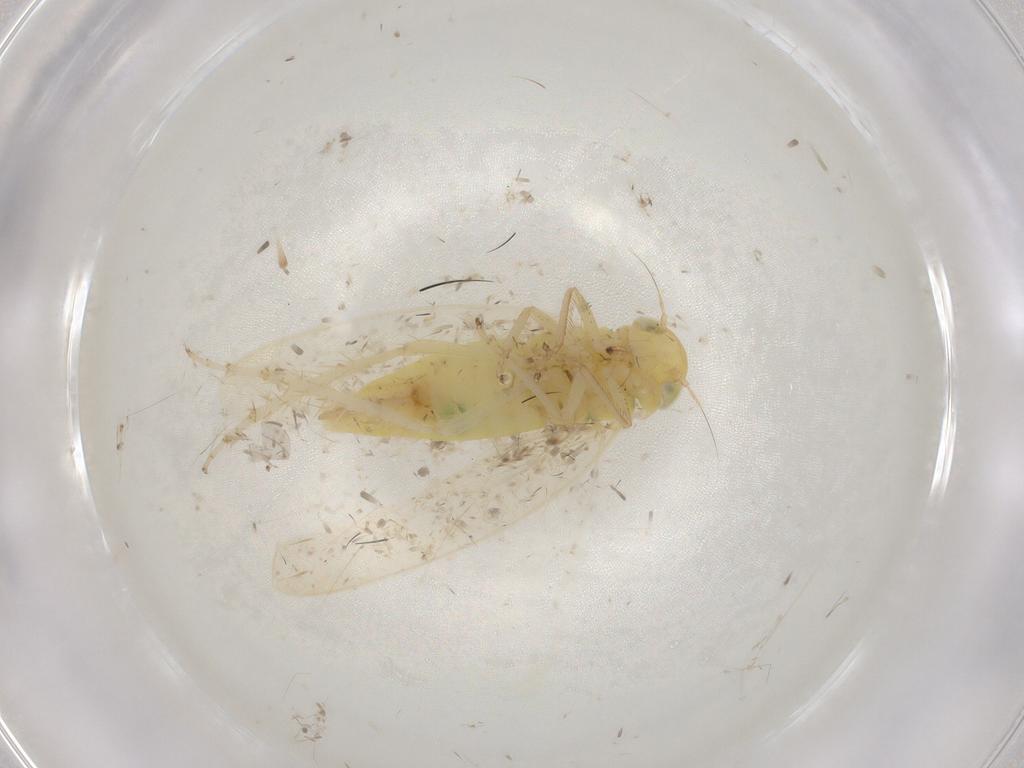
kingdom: Animalia
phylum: Arthropoda
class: Insecta
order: Hemiptera
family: Cicadellidae
